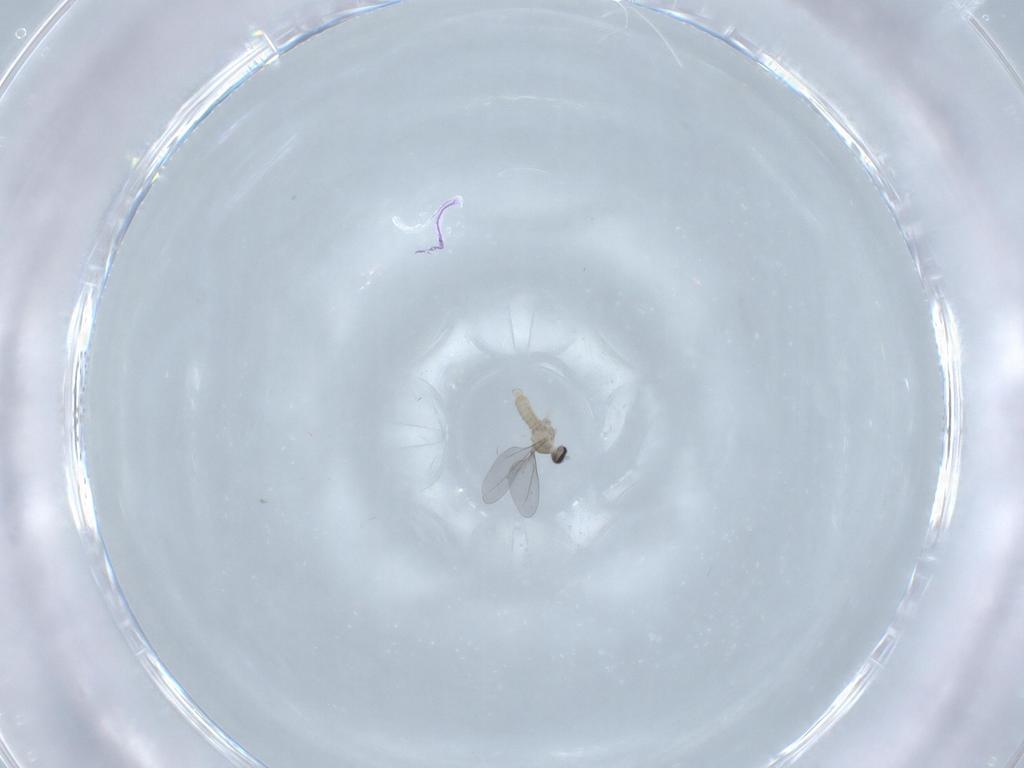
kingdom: Animalia
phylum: Arthropoda
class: Insecta
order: Diptera
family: Cecidomyiidae
